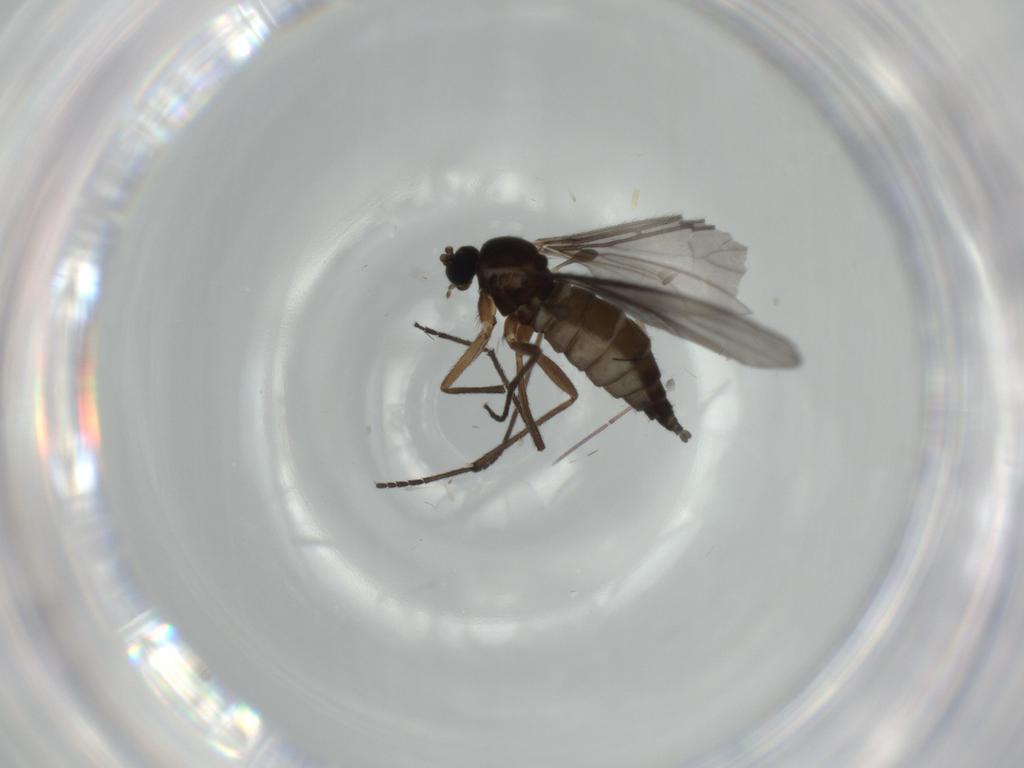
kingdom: Animalia
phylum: Arthropoda
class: Insecta
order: Diptera
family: Sciaridae
